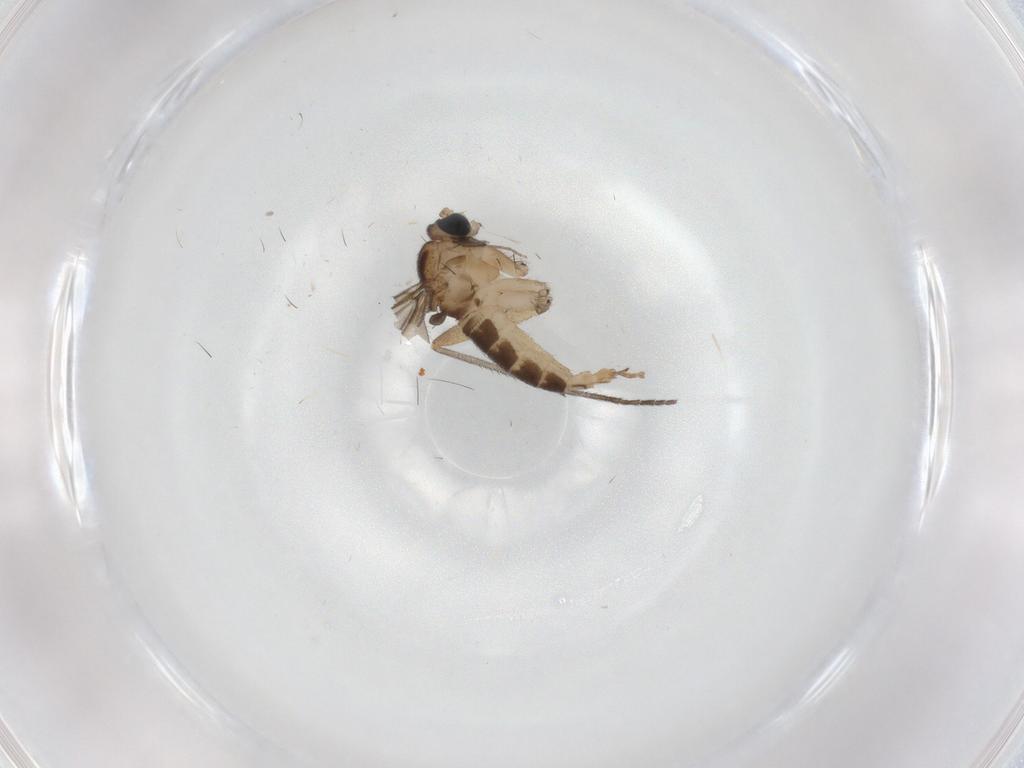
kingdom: Animalia
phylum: Arthropoda
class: Insecta
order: Diptera
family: Sciaridae
